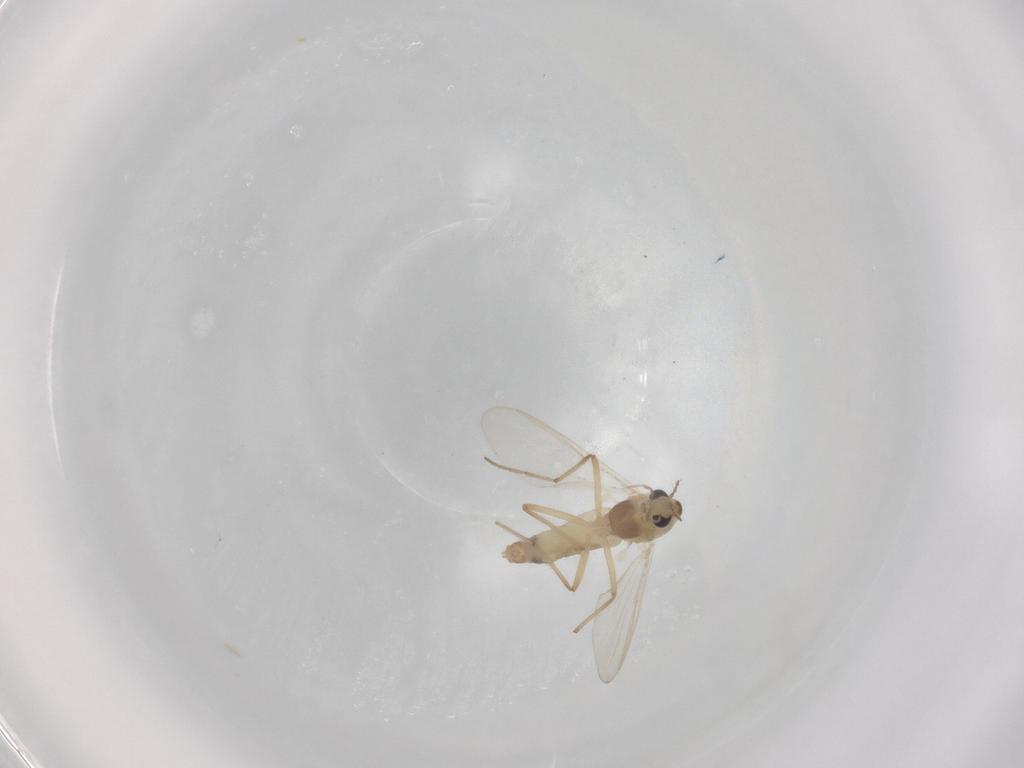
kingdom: Animalia
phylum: Arthropoda
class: Insecta
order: Diptera
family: Chironomidae
